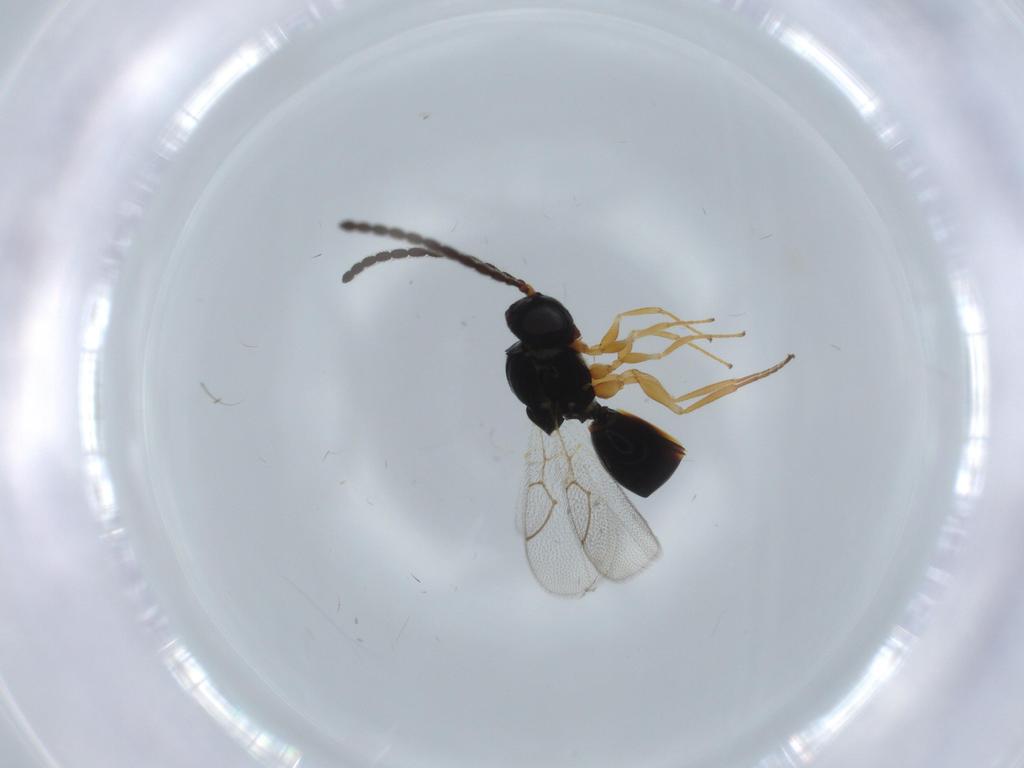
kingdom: Animalia
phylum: Arthropoda
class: Insecta
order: Hymenoptera
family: Figitidae
